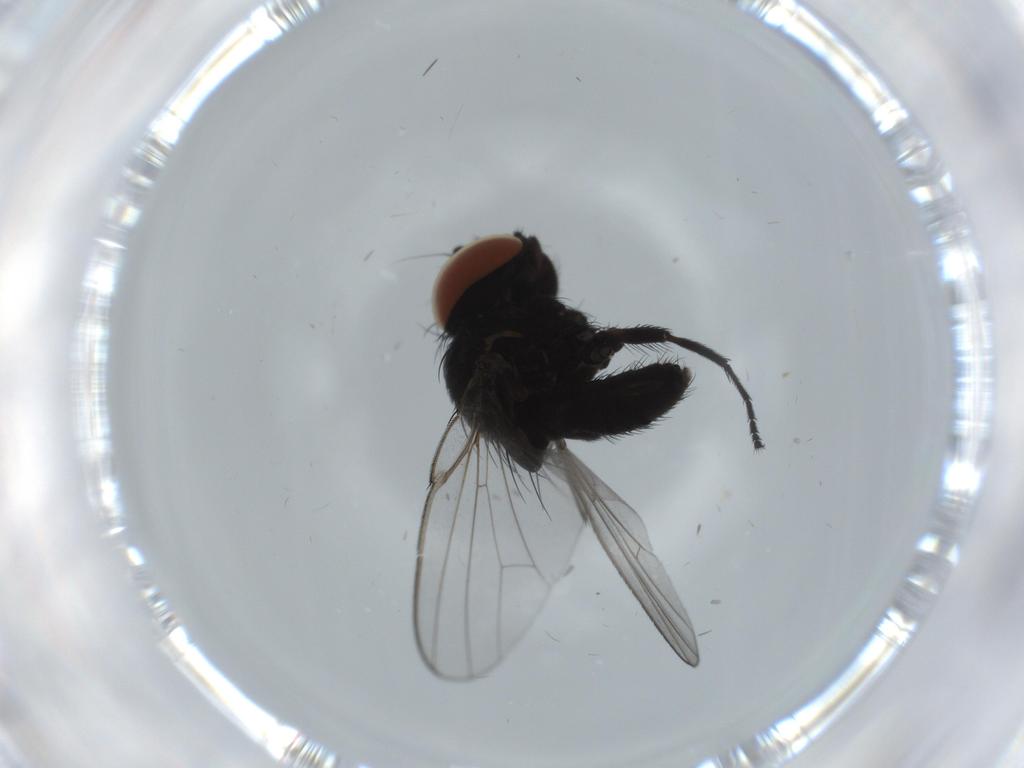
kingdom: Animalia
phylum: Arthropoda
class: Insecta
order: Diptera
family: Milichiidae
